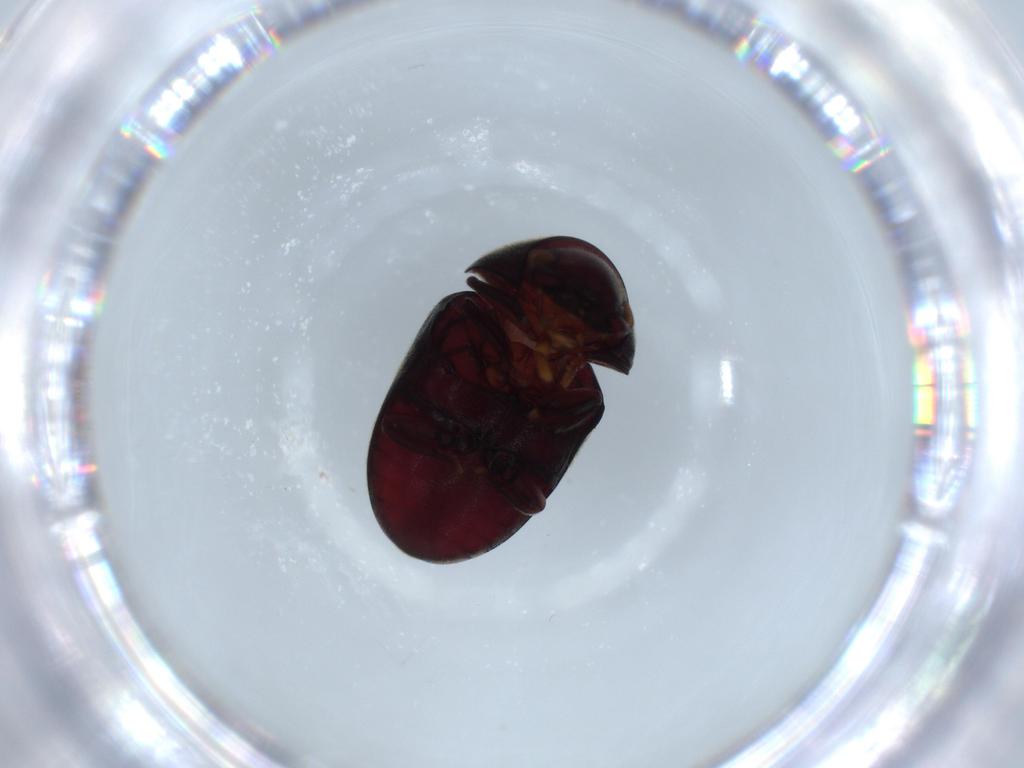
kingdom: Animalia
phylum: Arthropoda
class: Insecta
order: Coleoptera
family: Ptinidae
